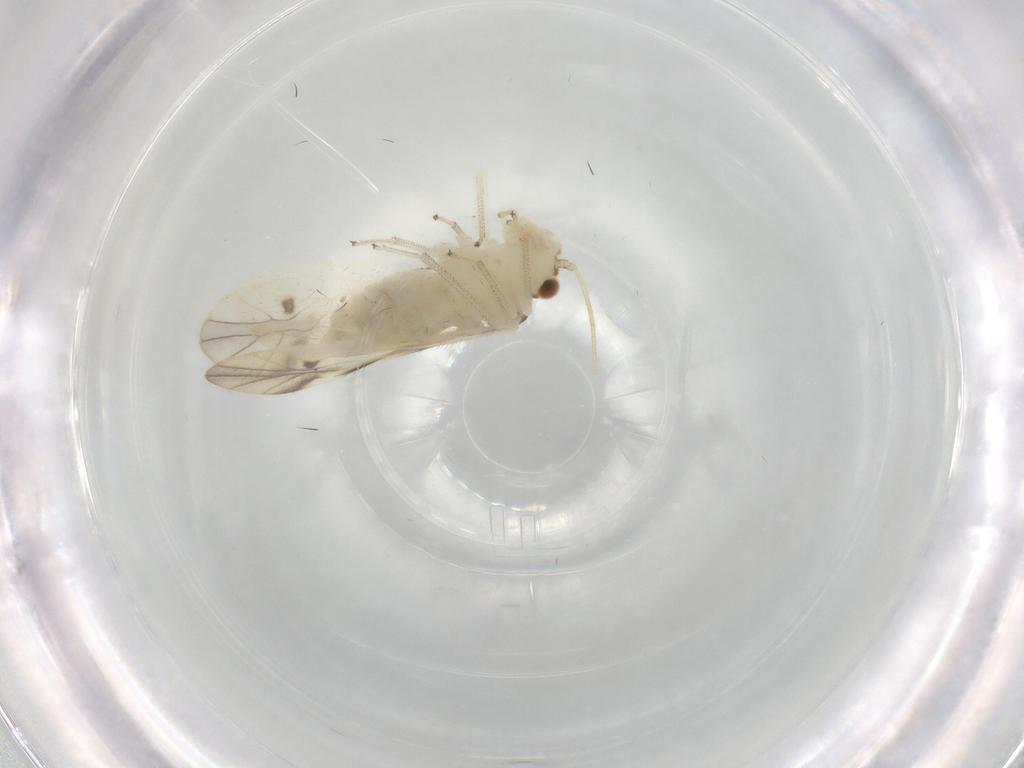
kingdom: Animalia
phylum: Arthropoda
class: Insecta
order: Psocodea
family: Caeciliusidae
